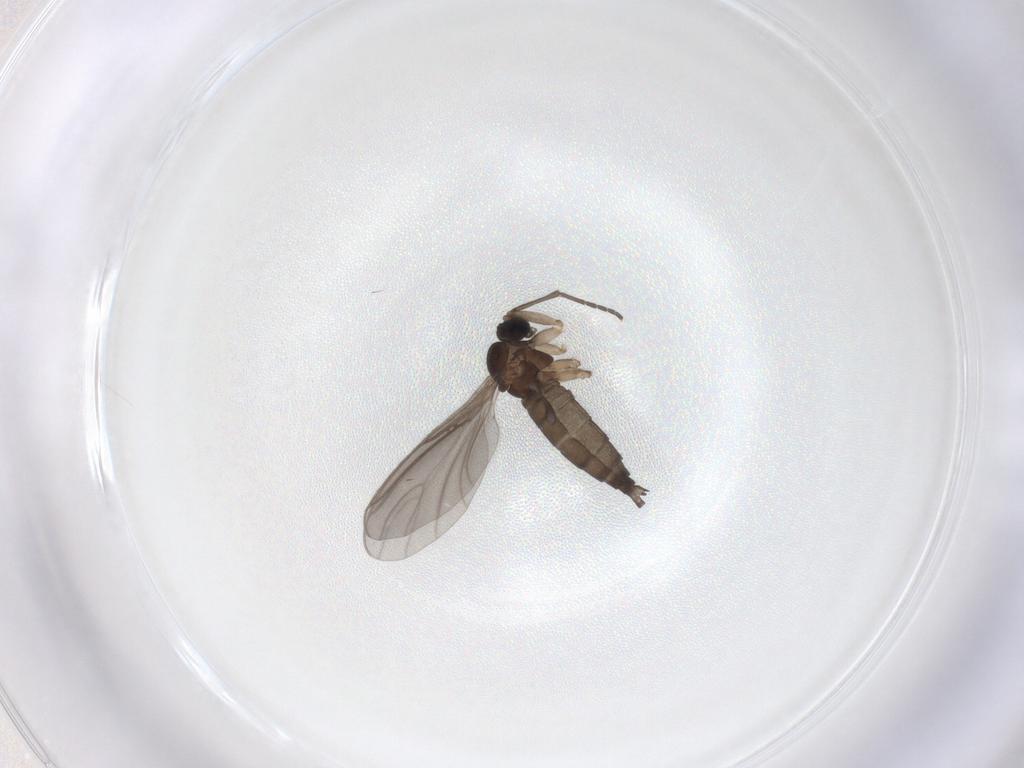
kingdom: Animalia
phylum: Arthropoda
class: Insecta
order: Diptera
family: Sciaridae
